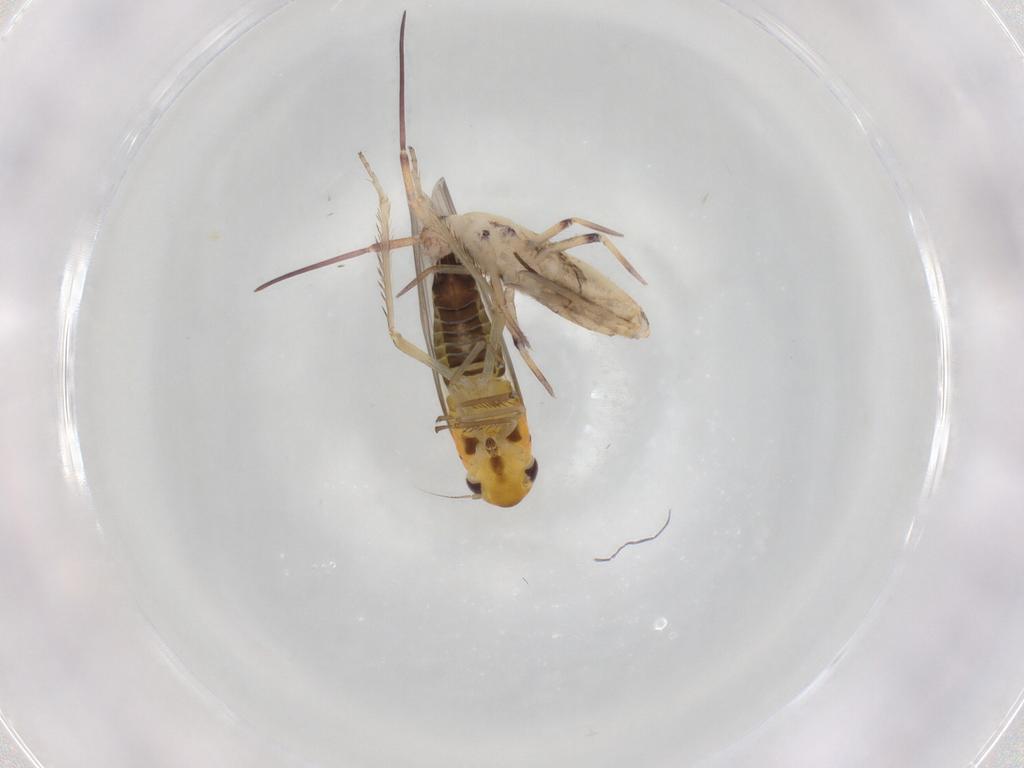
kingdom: Animalia
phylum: Arthropoda
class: Insecta
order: Hemiptera
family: Cicadellidae
